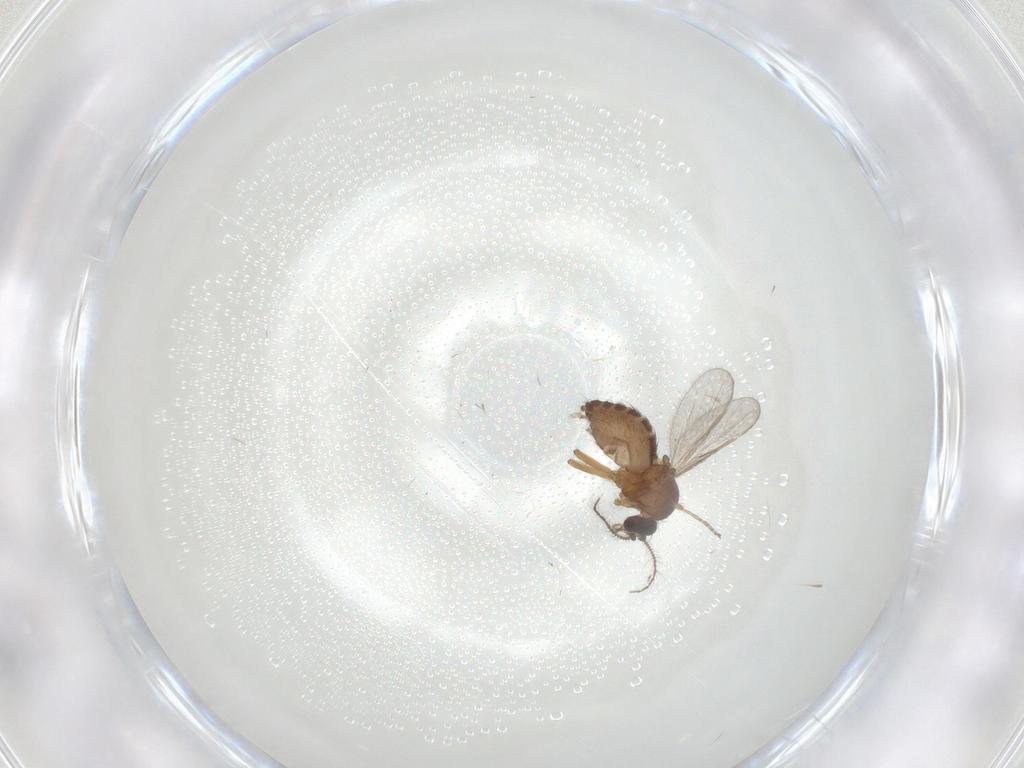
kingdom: Animalia
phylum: Arthropoda
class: Insecta
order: Diptera
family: Ceratopogonidae
